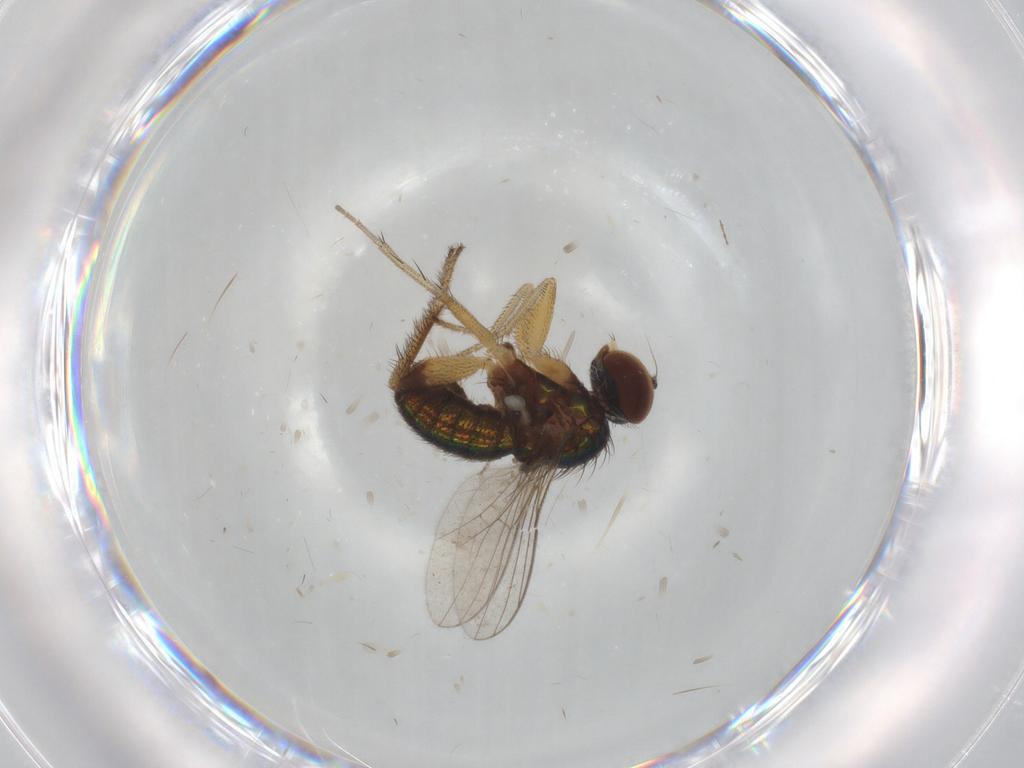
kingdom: Animalia
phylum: Arthropoda
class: Insecta
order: Diptera
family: Dolichopodidae
